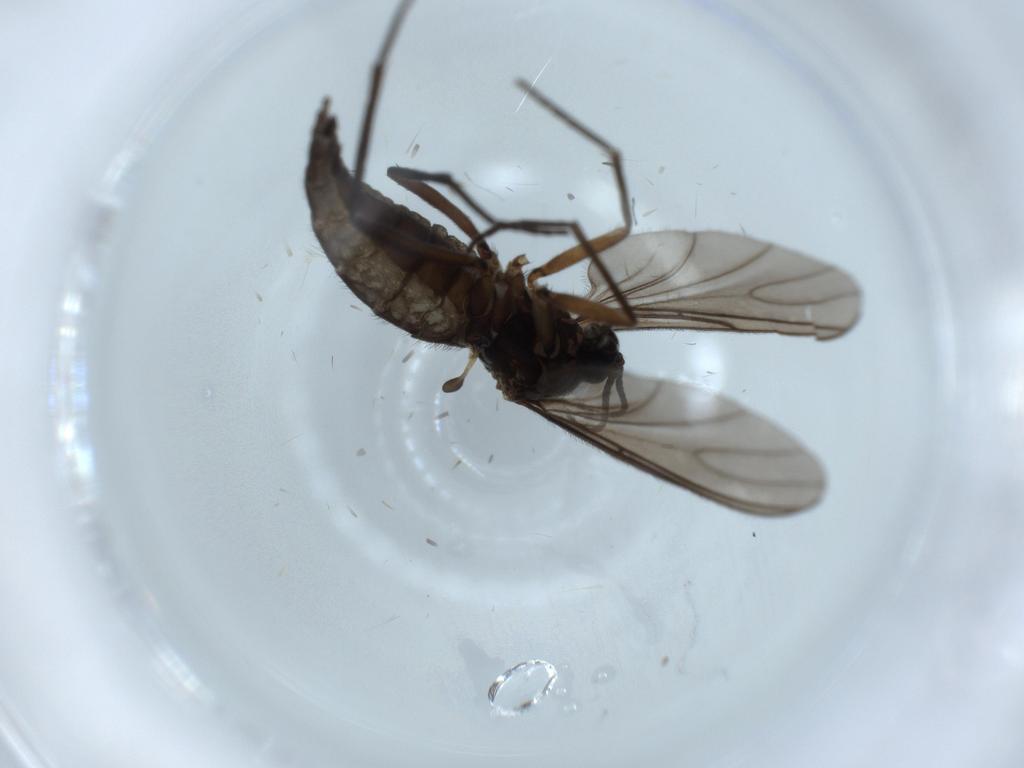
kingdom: Animalia
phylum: Arthropoda
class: Insecta
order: Diptera
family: Sciaridae
